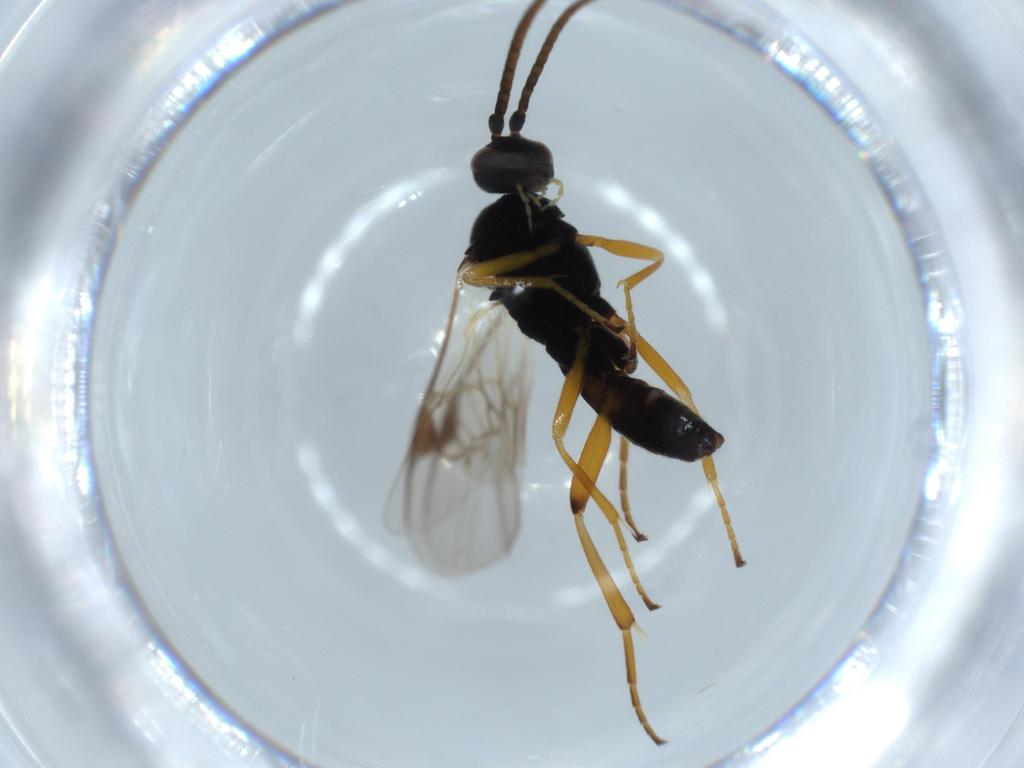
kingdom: Animalia
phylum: Arthropoda
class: Insecta
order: Hymenoptera
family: Braconidae
